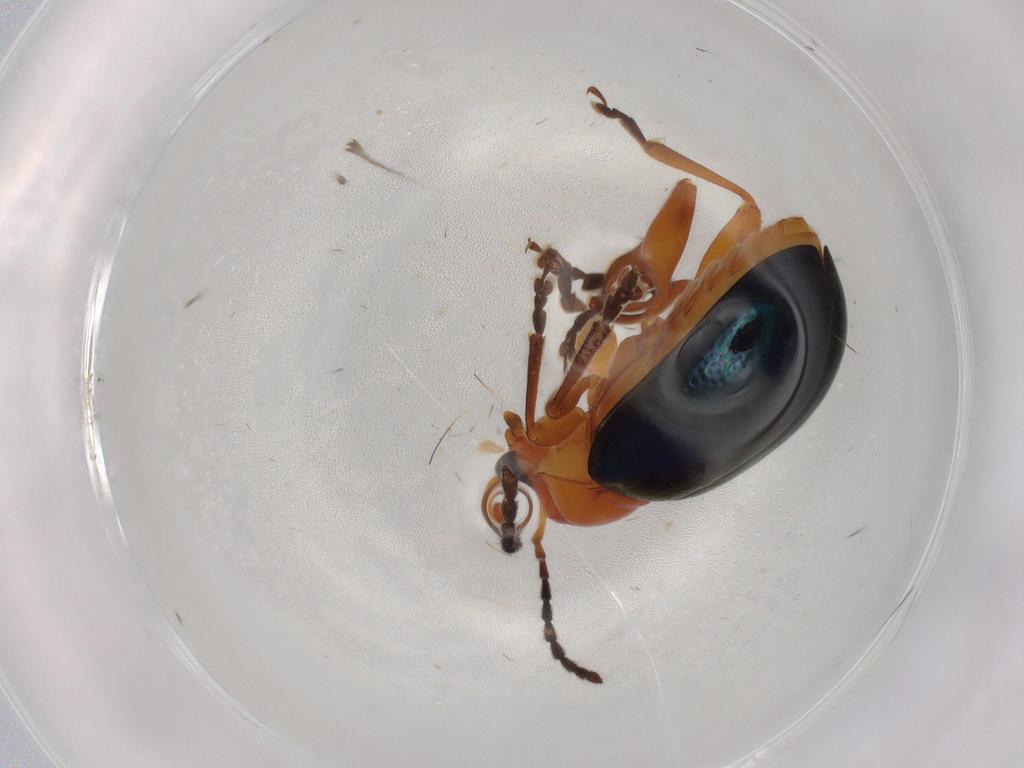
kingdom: Animalia
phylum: Arthropoda
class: Insecta
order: Coleoptera
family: Chrysomelidae
